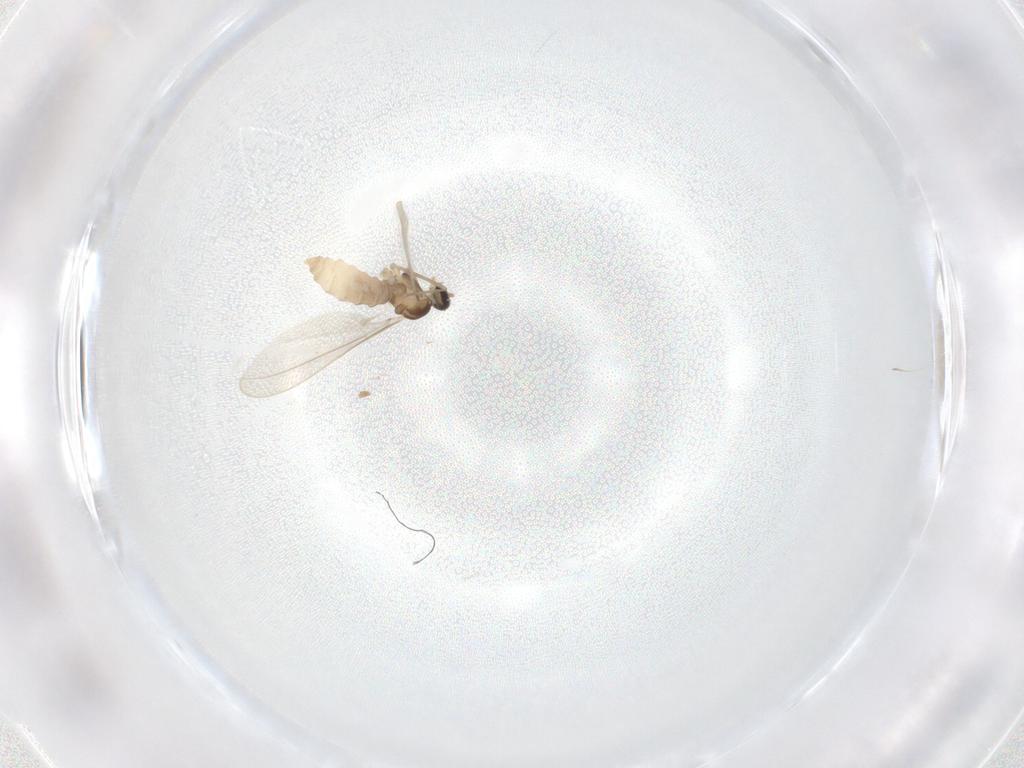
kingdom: Animalia
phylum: Arthropoda
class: Insecta
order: Diptera
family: Cecidomyiidae
